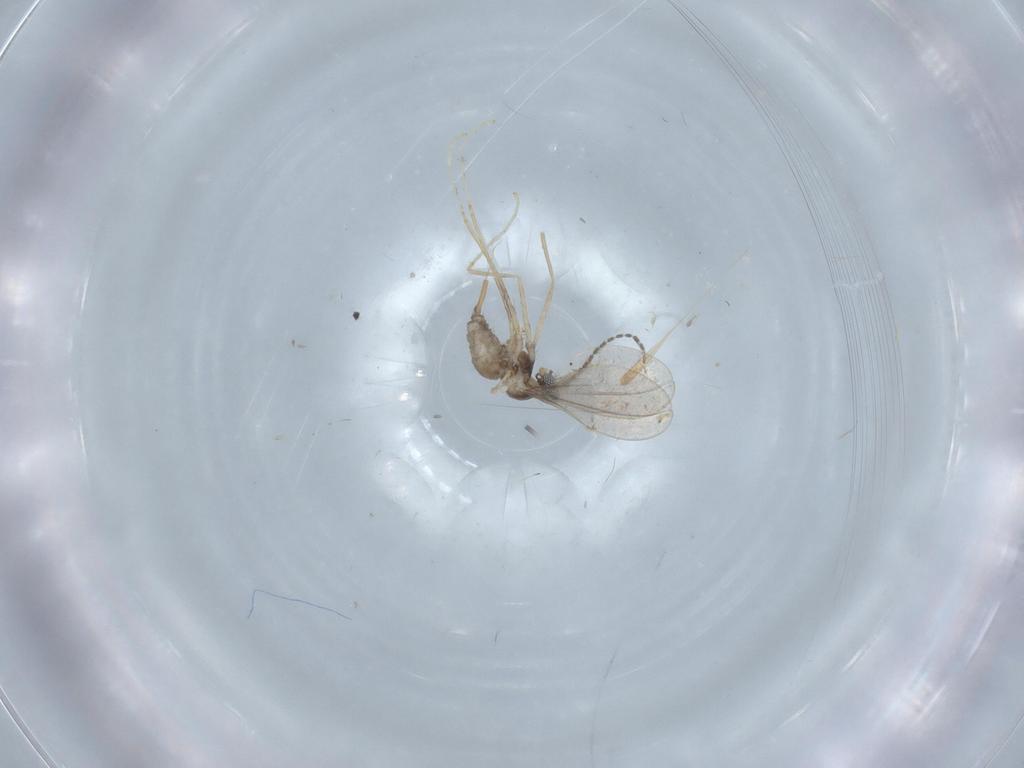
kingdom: Animalia
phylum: Arthropoda
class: Insecta
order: Diptera
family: Cecidomyiidae
